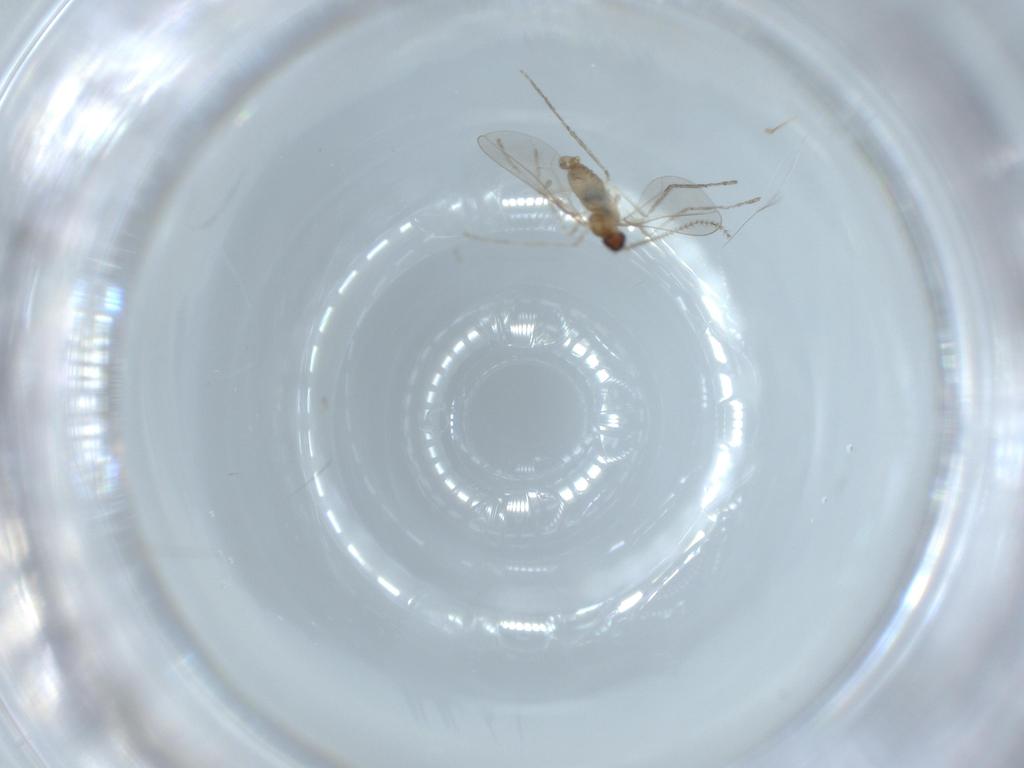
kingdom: Animalia
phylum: Arthropoda
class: Insecta
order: Diptera
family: Cecidomyiidae
